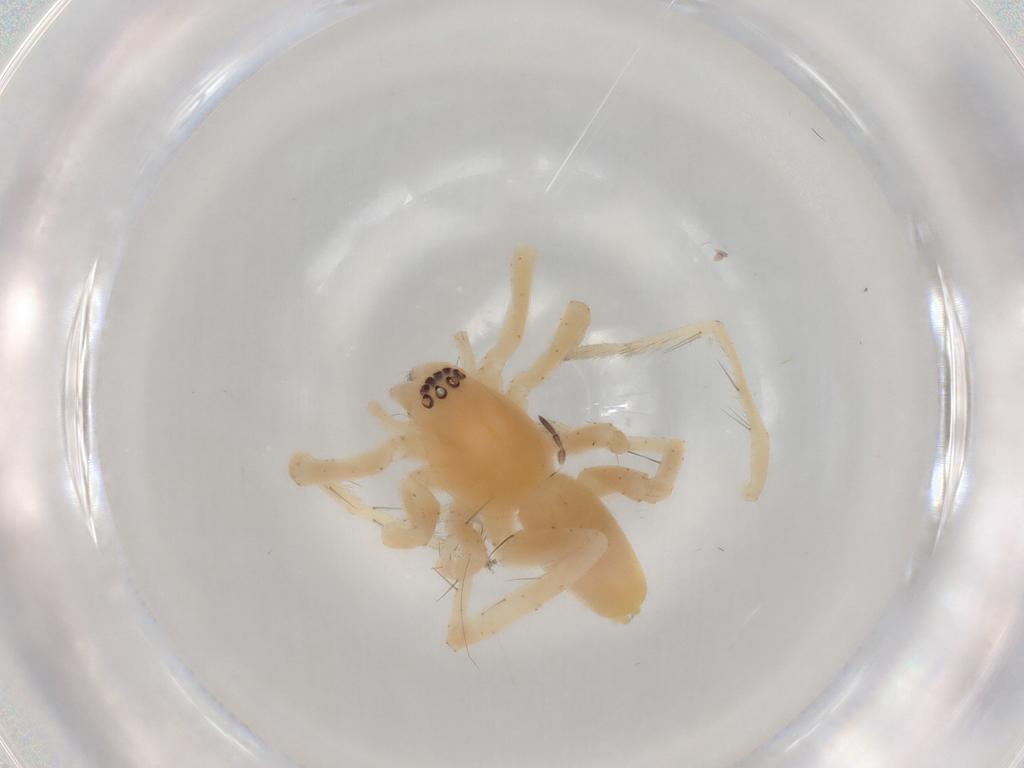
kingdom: Animalia
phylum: Arthropoda
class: Arachnida
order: Araneae
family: Anyphaenidae
